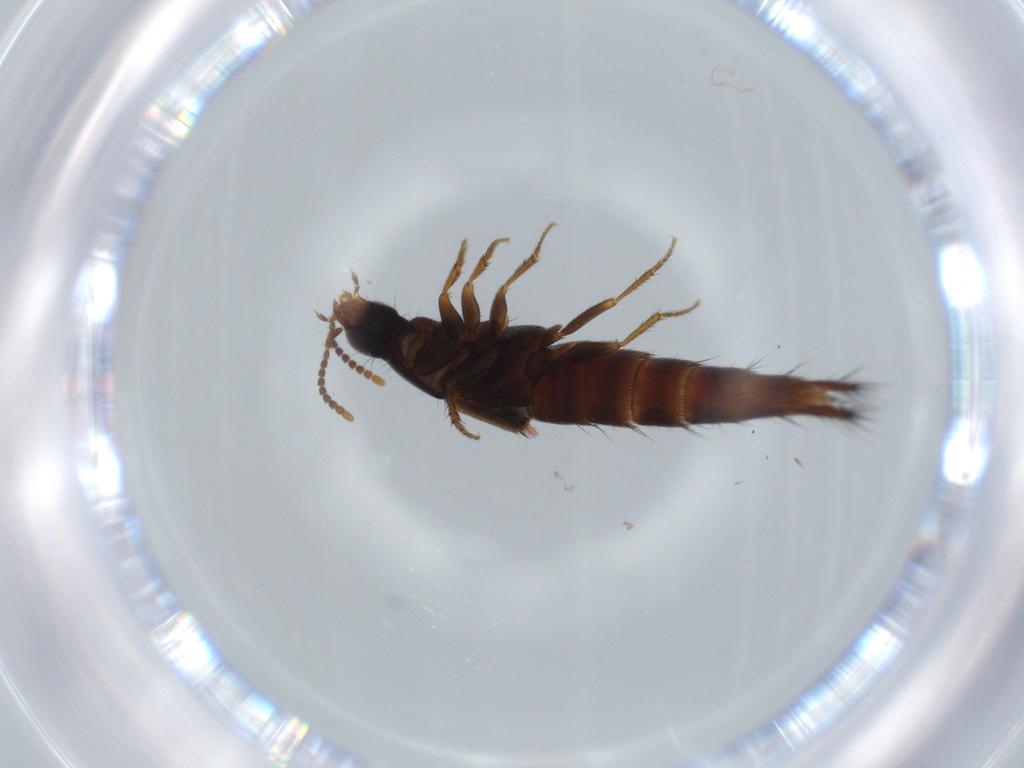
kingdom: Animalia
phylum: Arthropoda
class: Insecta
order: Coleoptera
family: Staphylinidae
